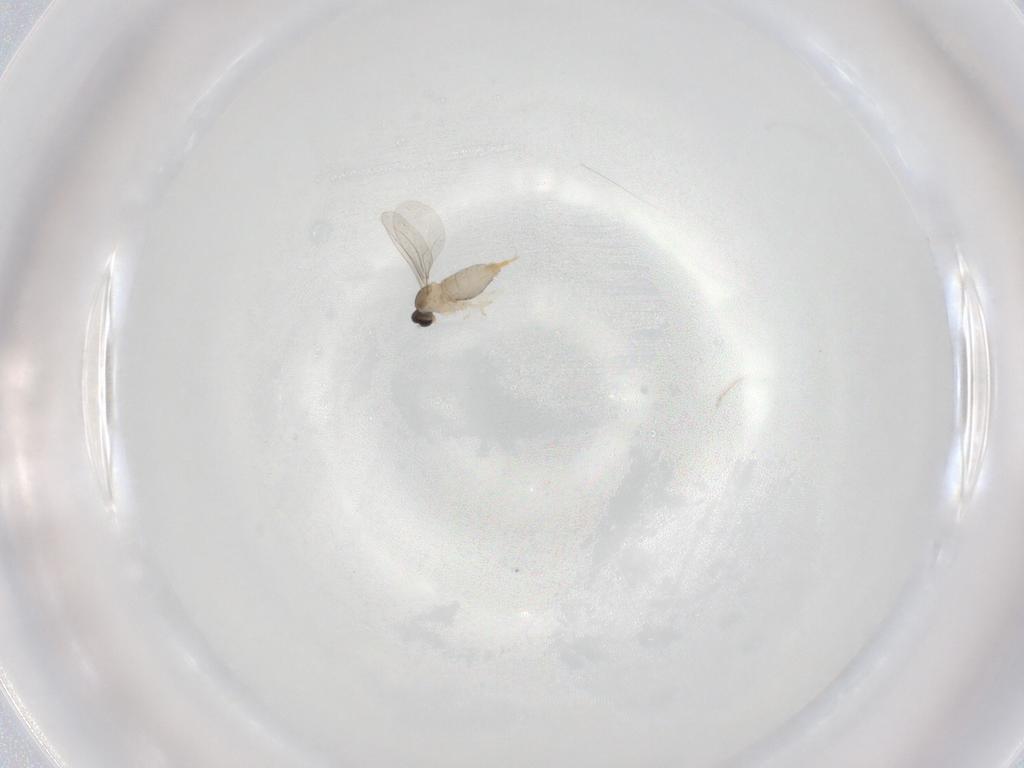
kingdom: Animalia
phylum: Arthropoda
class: Insecta
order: Diptera
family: Cecidomyiidae
